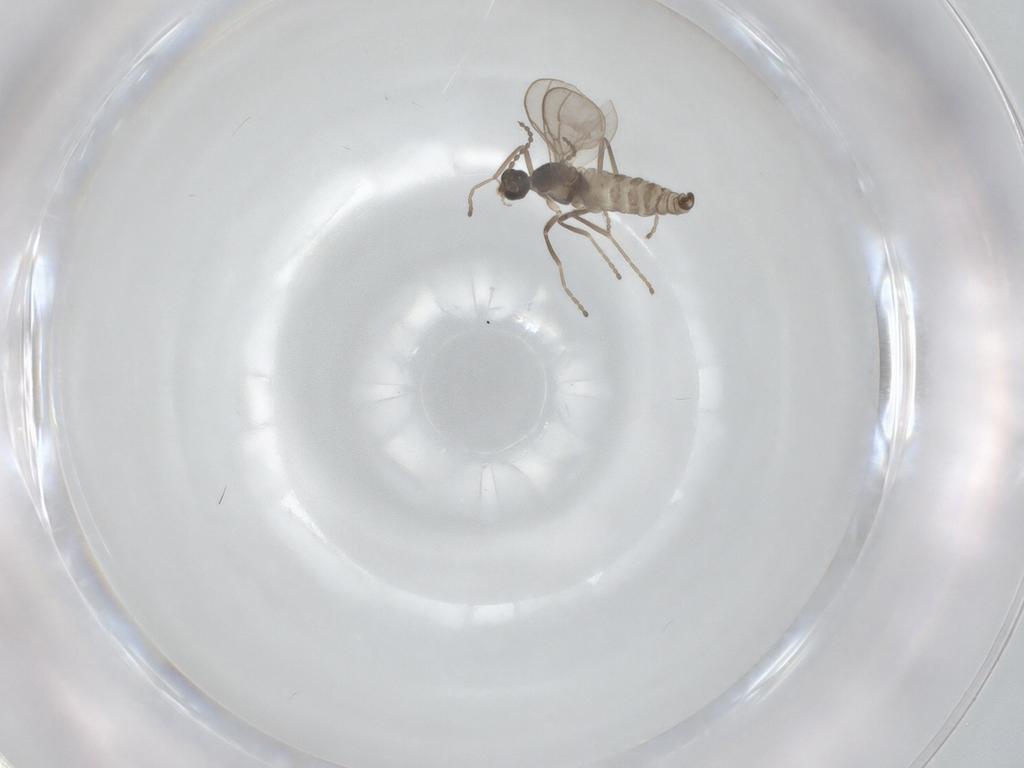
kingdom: Animalia
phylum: Arthropoda
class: Insecta
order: Diptera
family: Cecidomyiidae
